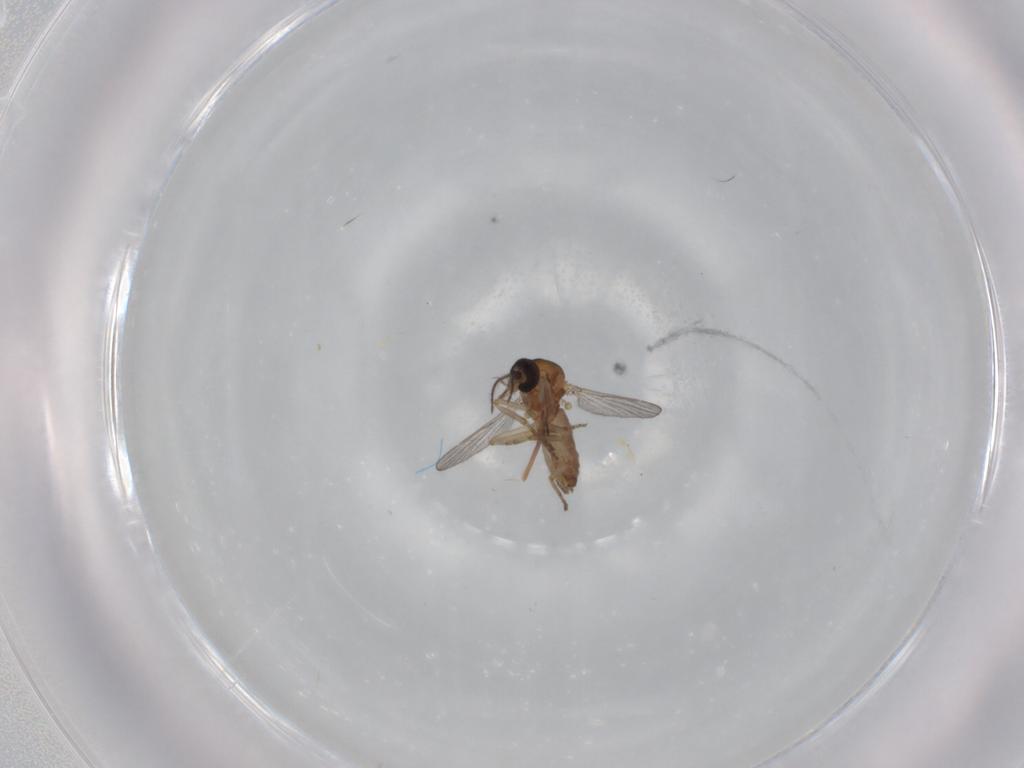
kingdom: Animalia
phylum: Arthropoda
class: Insecta
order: Diptera
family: Ceratopogonidae
